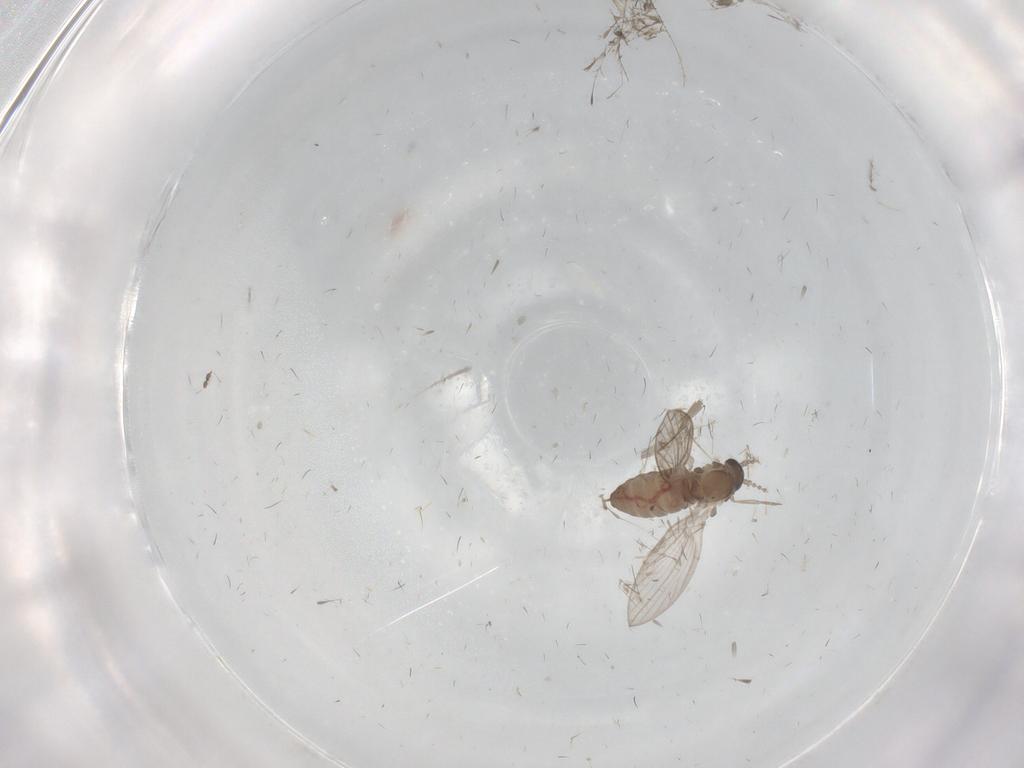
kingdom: Animalia
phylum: Arthropoda
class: Insecta
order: Diptera
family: Psychodidae
